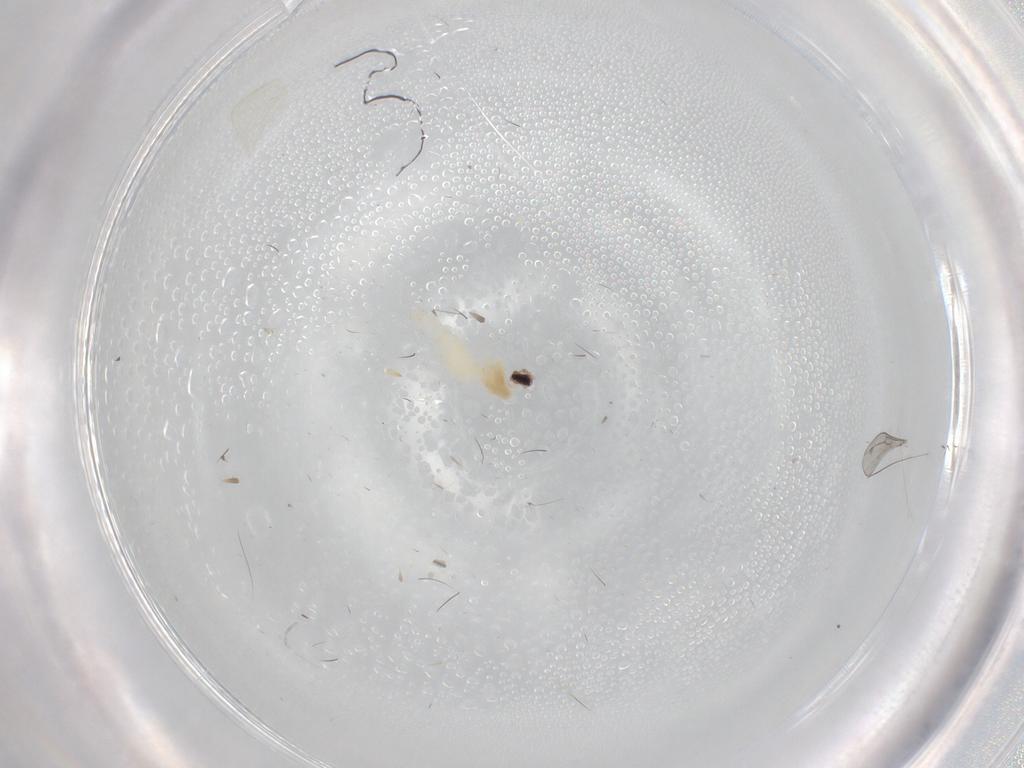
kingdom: Animalia
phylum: Arthropoda
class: Insecta
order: Diptera
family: Cecidomyiidae
